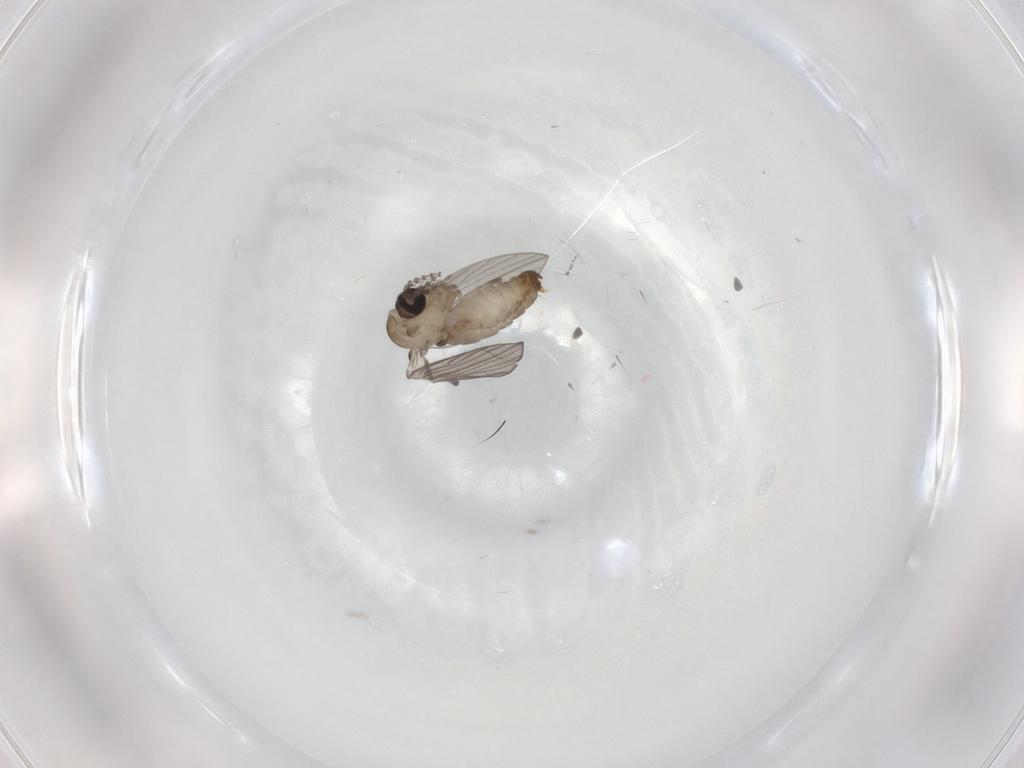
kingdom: Animalia
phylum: Arthropoda
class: Insecta
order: Diptera
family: Psychodidae
